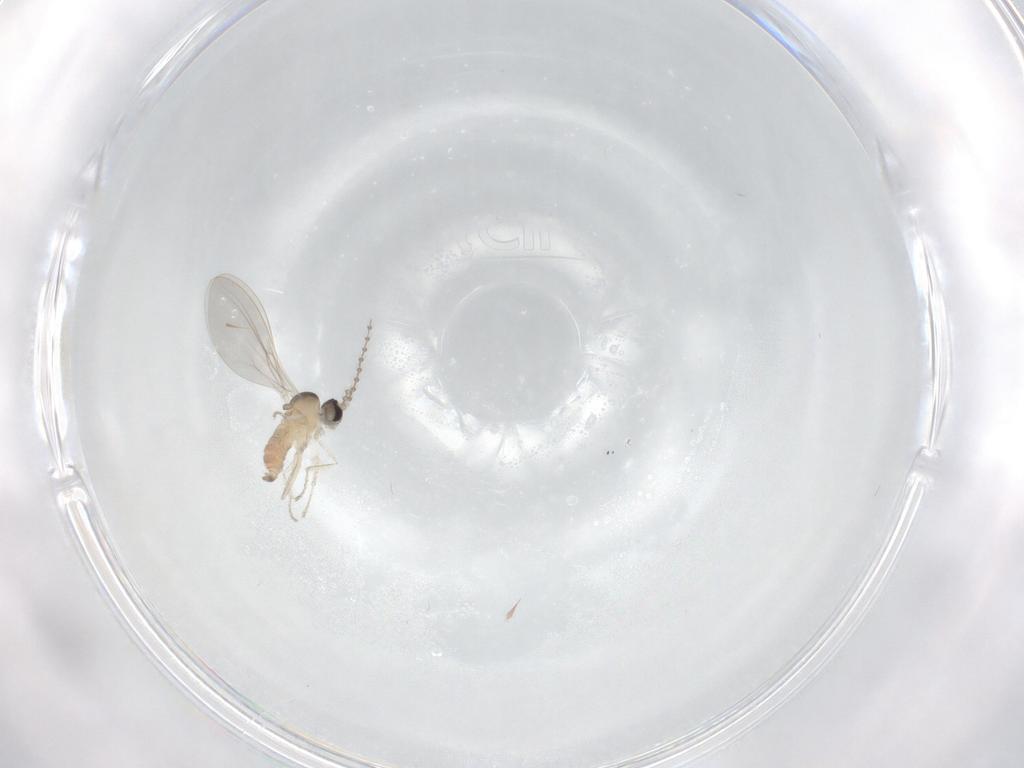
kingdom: Animalia
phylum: Arthropoda
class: Insecta
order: Diptera
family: Cecidomyiidae
